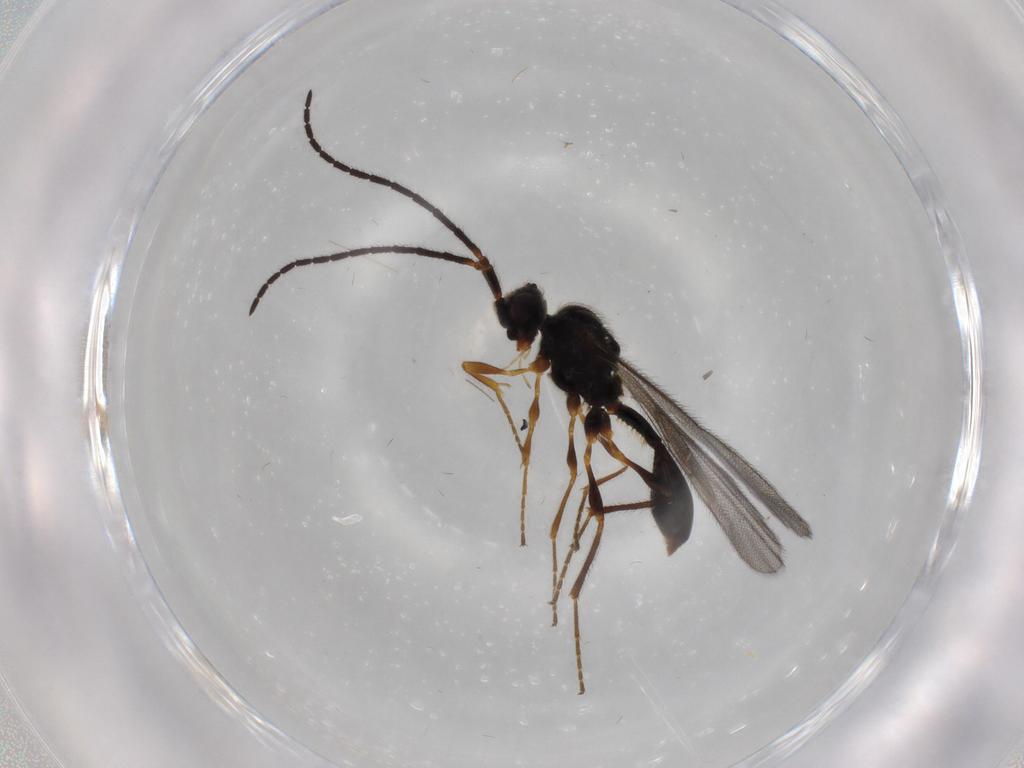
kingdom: Animalia
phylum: Arthropoda
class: Insecta
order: Hymenoptera
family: Diapriidae
